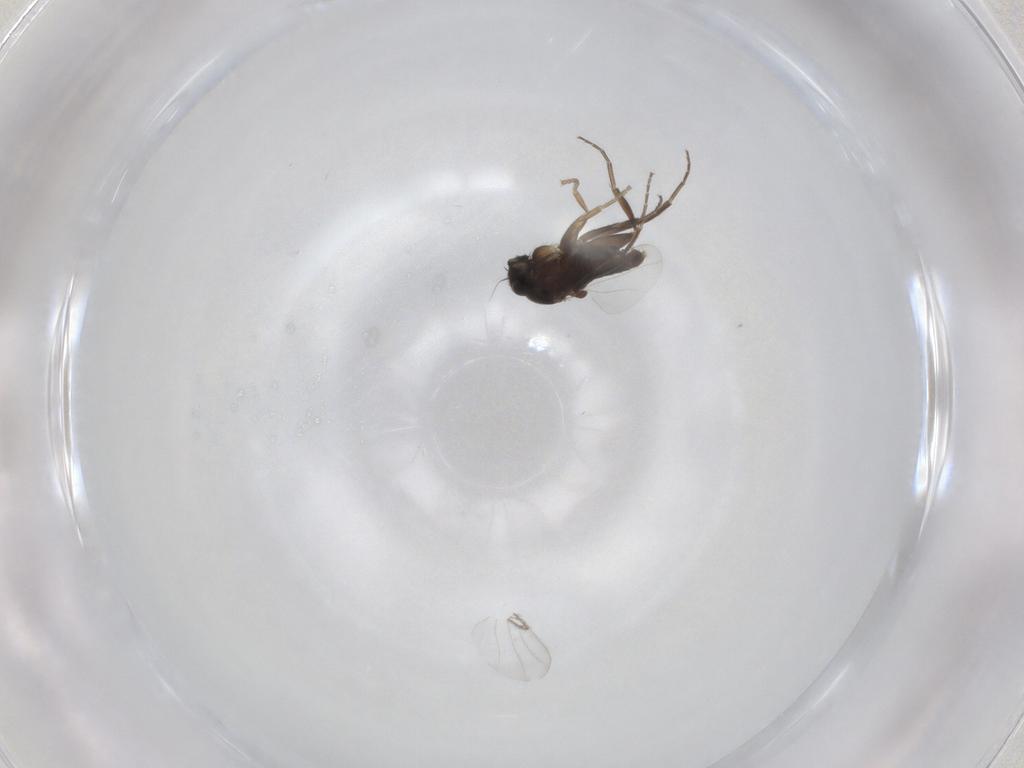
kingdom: Animalia
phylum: Arthropoda
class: Insecta
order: Diptera
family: Phoridae
